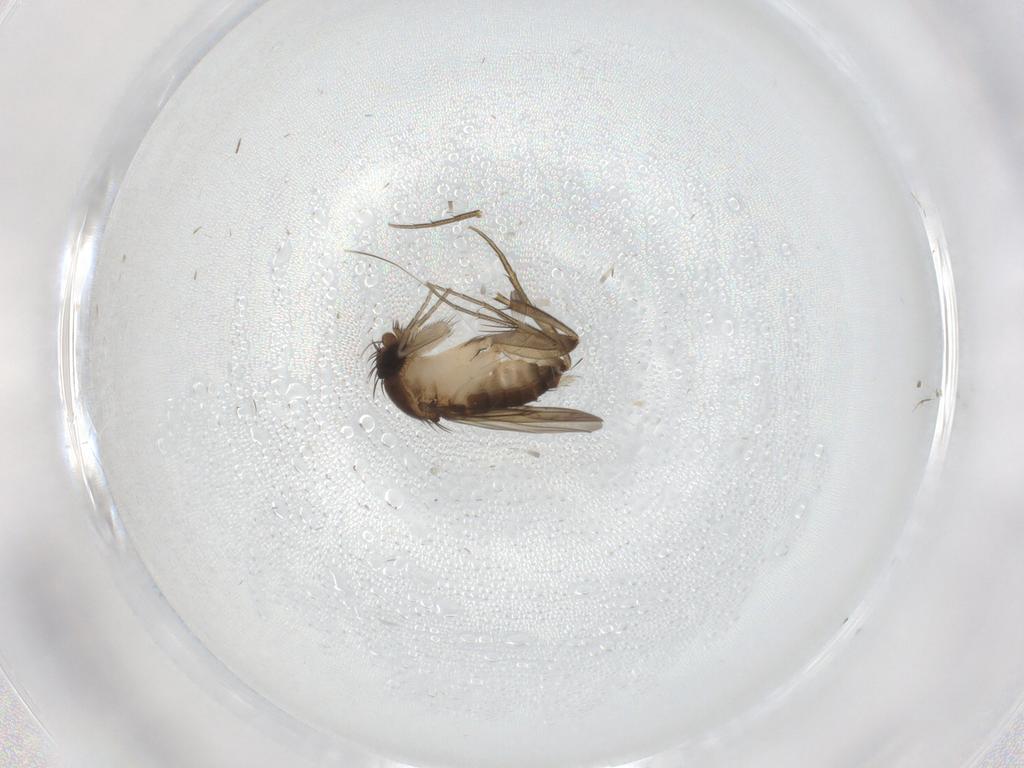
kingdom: Animalia
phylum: Arthropoda
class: Insecta
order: Diptera
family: Phoridae
